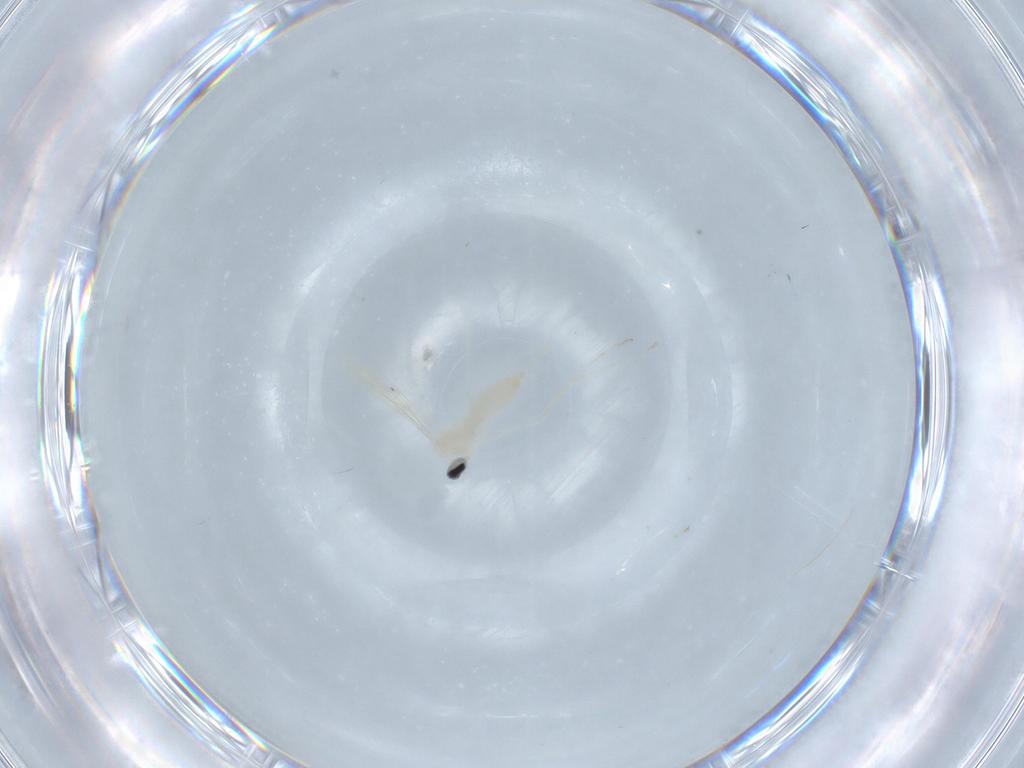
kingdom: Animalia
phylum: Arthropoda
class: Insecta
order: Diptera
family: Cecidomyiidae
